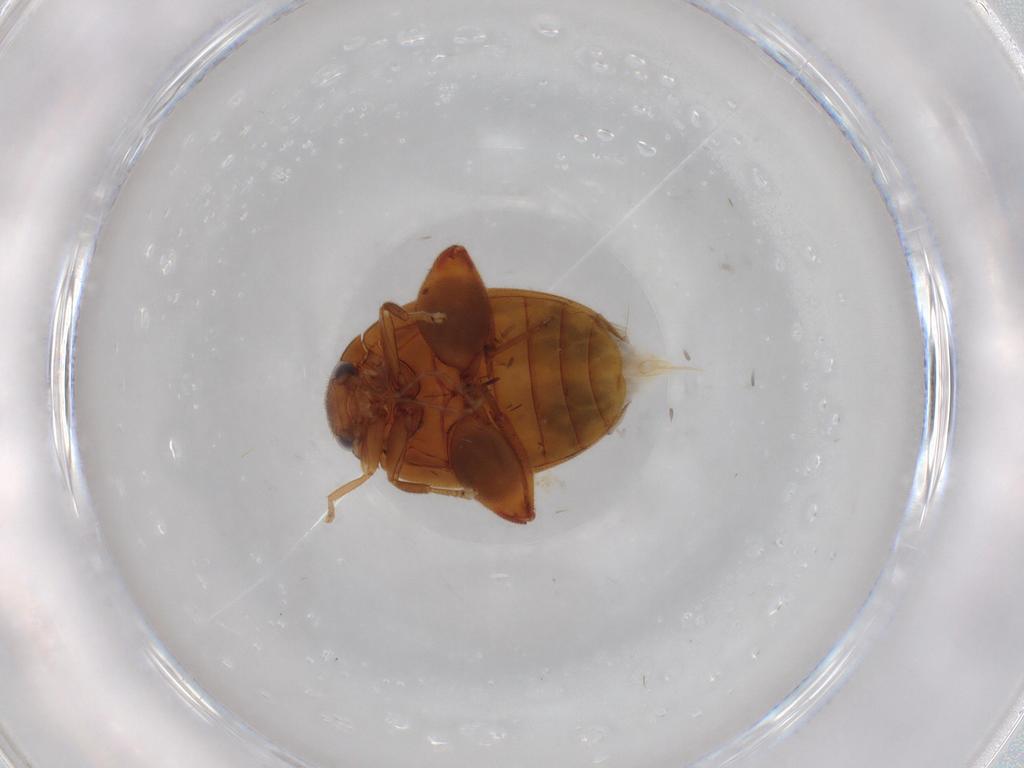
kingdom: Animalia
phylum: Arthropoda
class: Insecta
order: Coleoptera
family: Scirtidae
